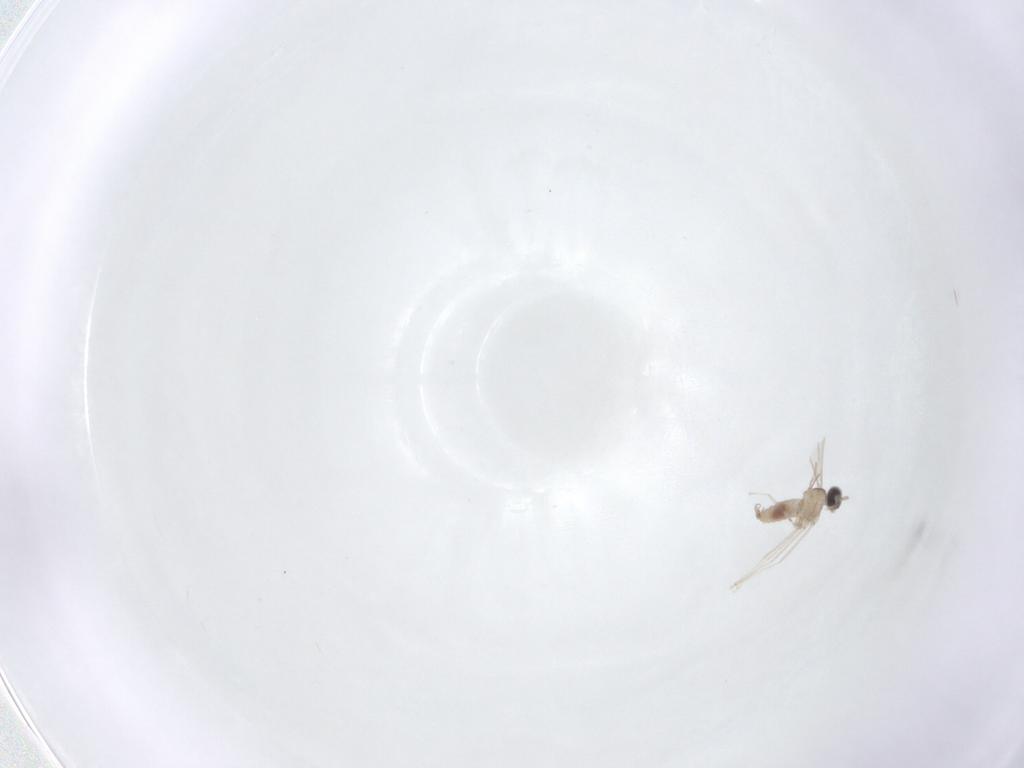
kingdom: Animalia
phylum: Arthropoda
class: Insecta
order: Diptera
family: Cecidomyiidae
